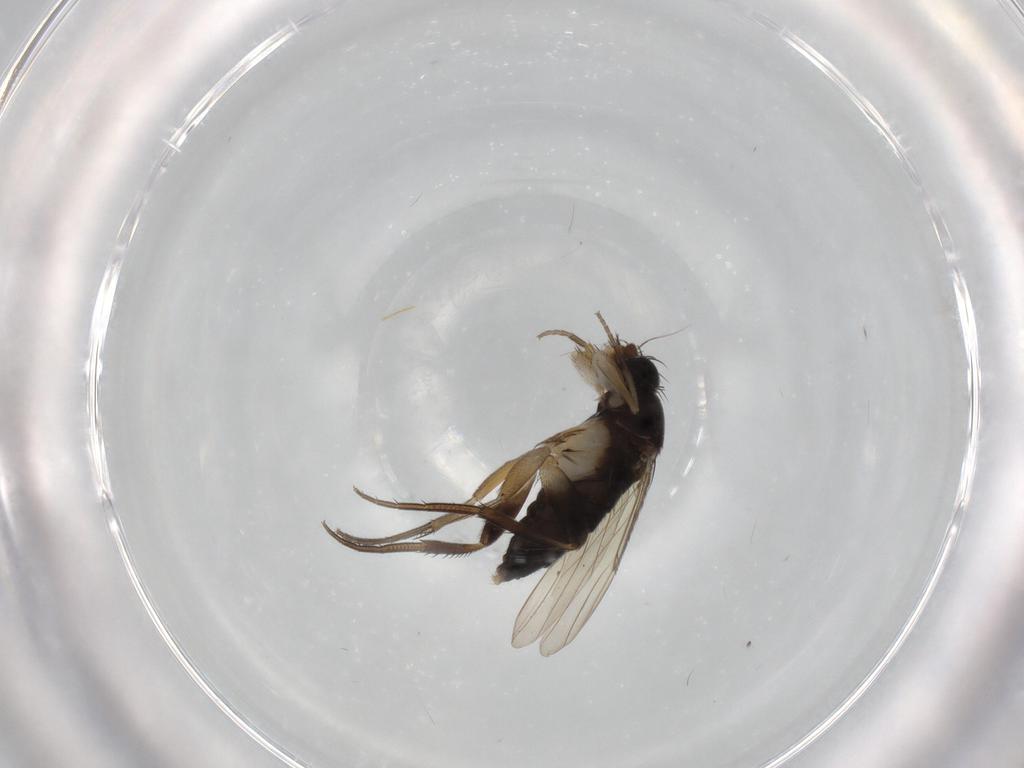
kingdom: Animalia
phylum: Arthropoda
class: Insecta
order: Diptera
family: Phoridae
